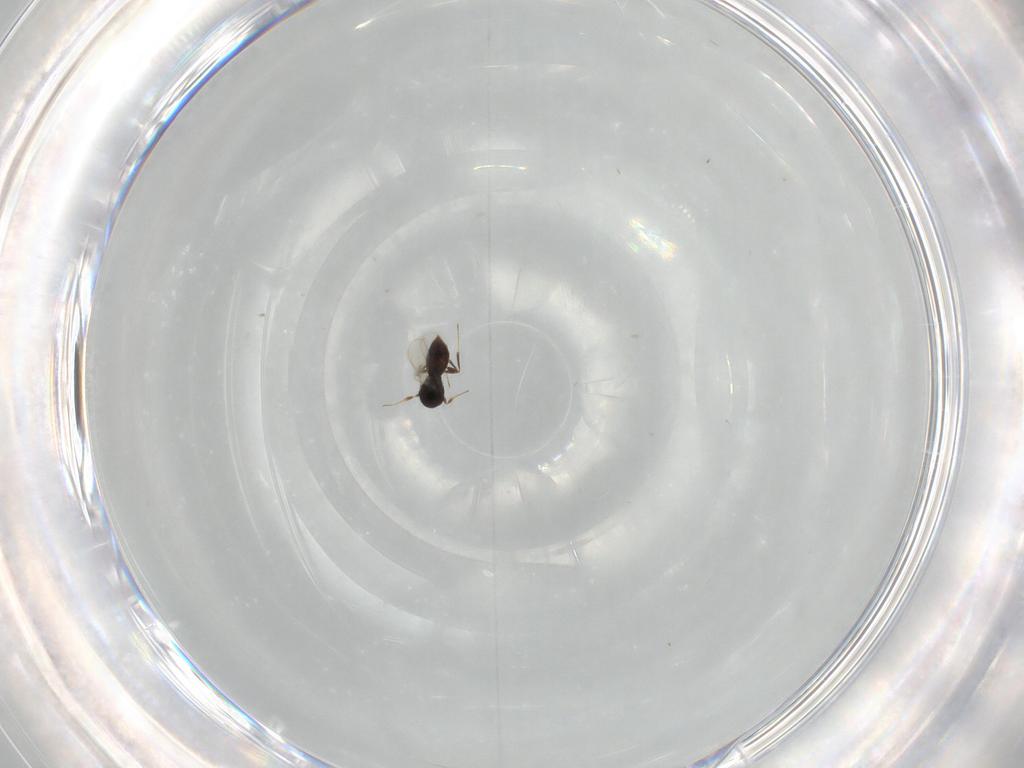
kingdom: Animalia
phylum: Arthropoda
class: Insecta
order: Hymenoptera
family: Scelionidae
